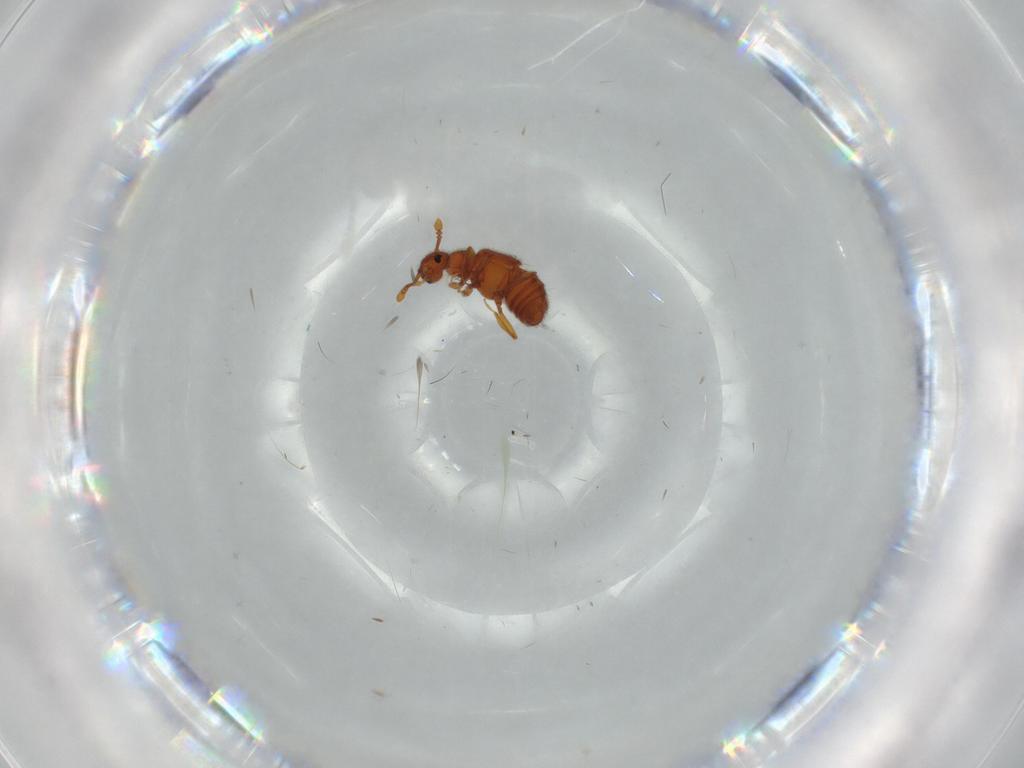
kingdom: Animalia
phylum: Arthropoda
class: Insecta
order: Coleoptera
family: Staphylinidae
